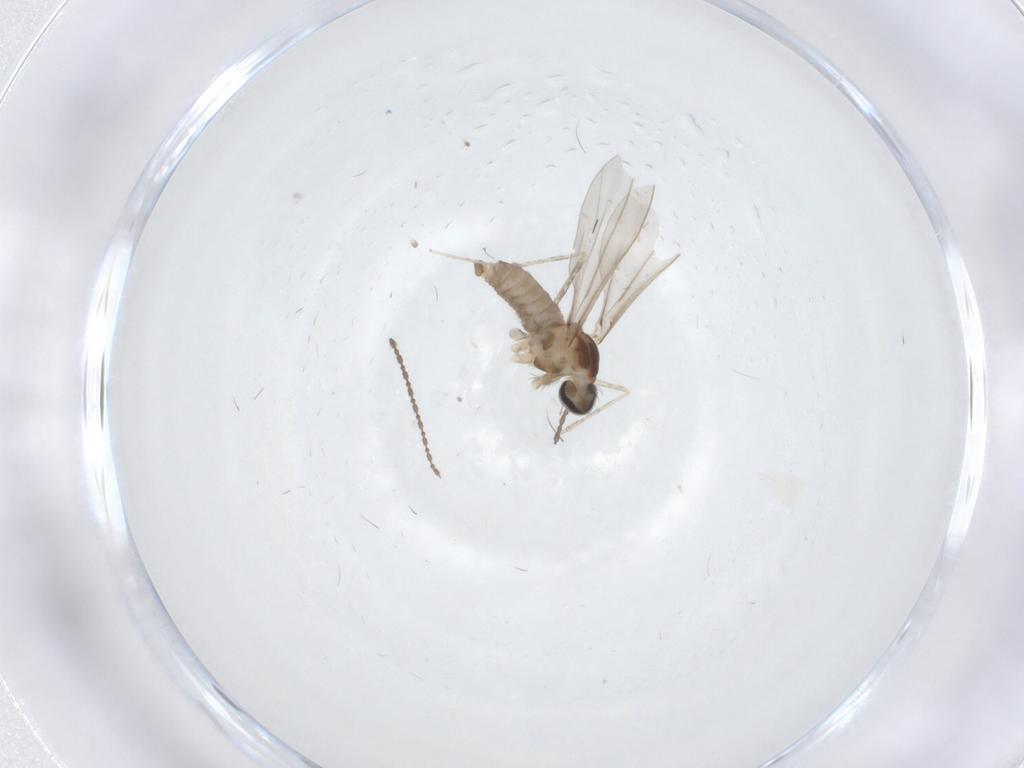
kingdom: Animalia
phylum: Arthropoda
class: Insecta
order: Diptera
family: Cecidomyiidae
